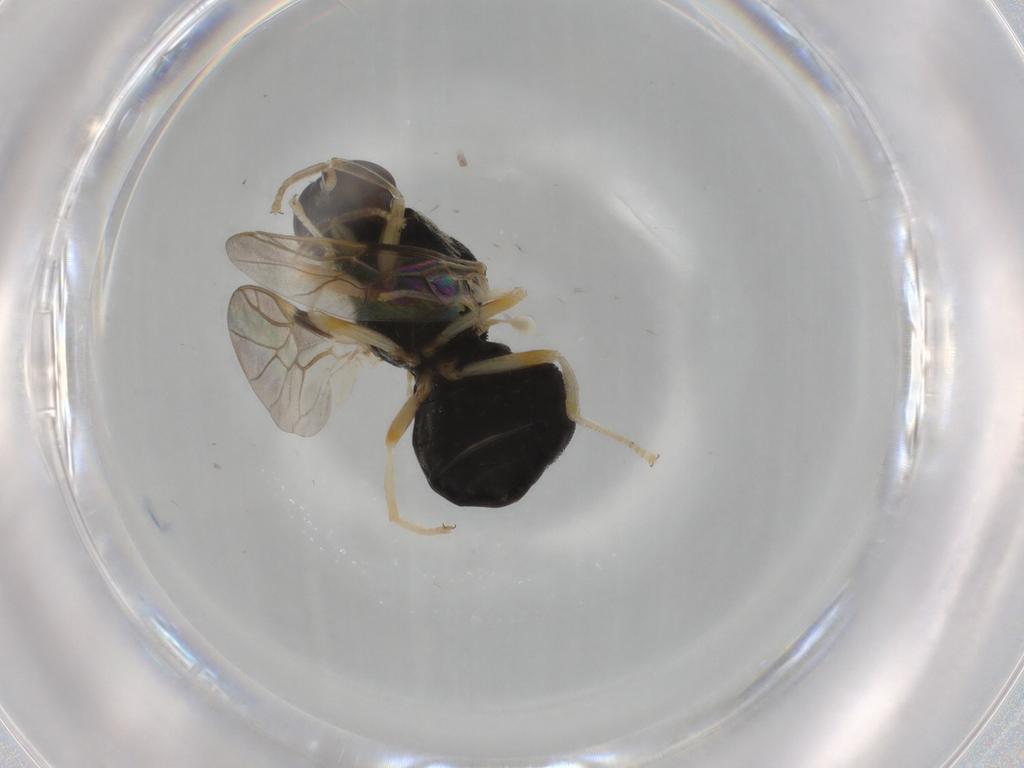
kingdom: Animalia
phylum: Arthropoda
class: Insecta
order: Diptera
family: Stratiomyidae
